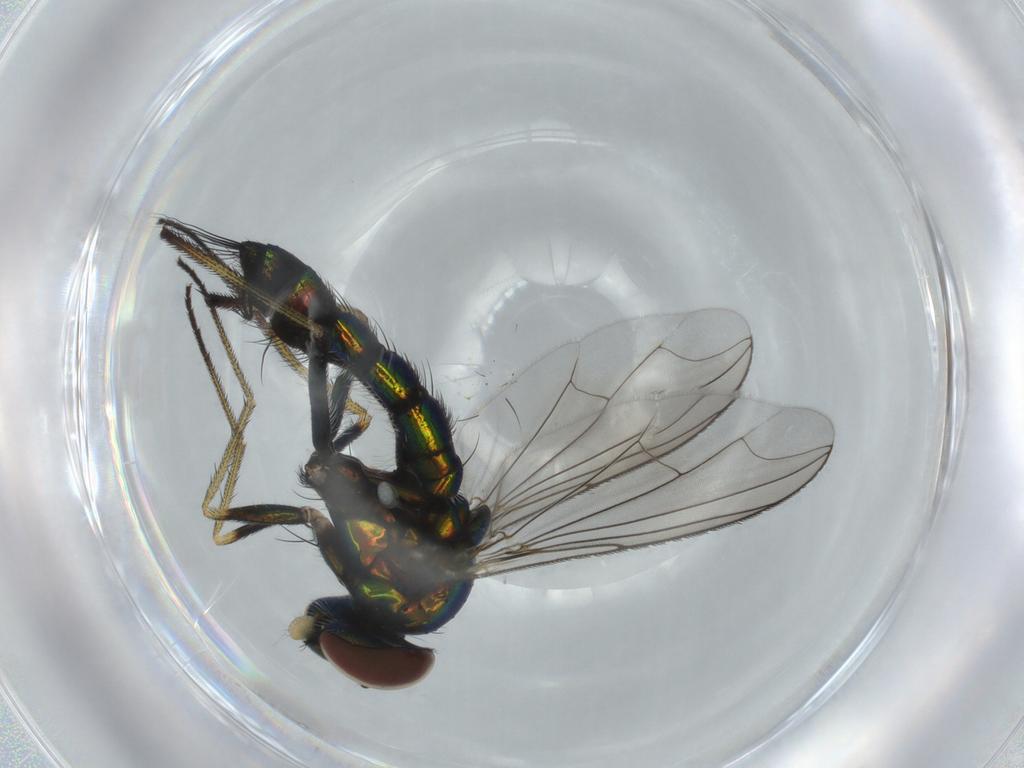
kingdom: Animalia
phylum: Arthropoda
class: Insecta
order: Diptera
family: Dolichopodidae
